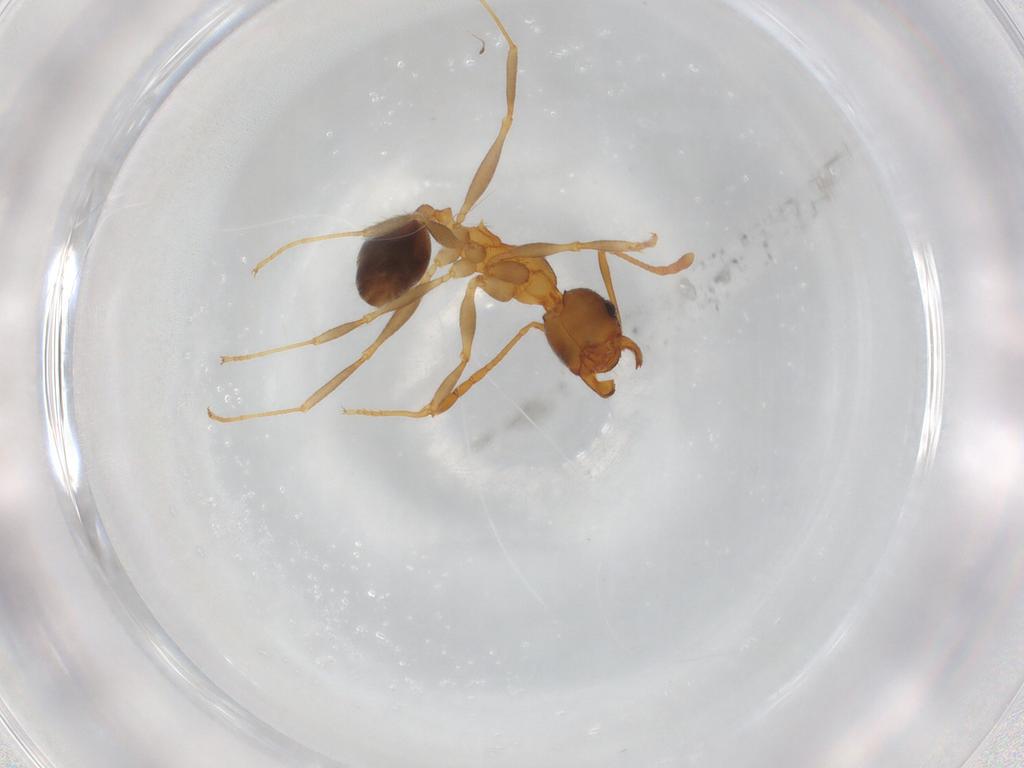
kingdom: Animalia
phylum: Arthropoda
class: Insecta
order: Hymenoptera
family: Formicidae
